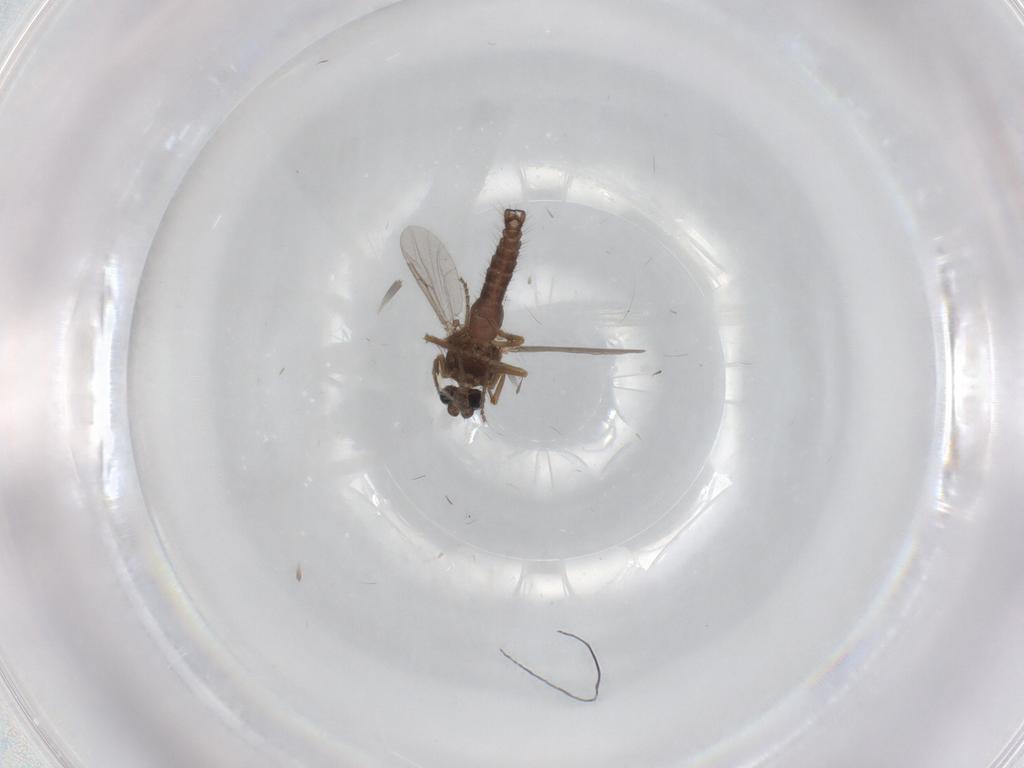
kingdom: Animalia
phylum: Arthropoda
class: Insecta
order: Diptera
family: Ceratopogonidae
